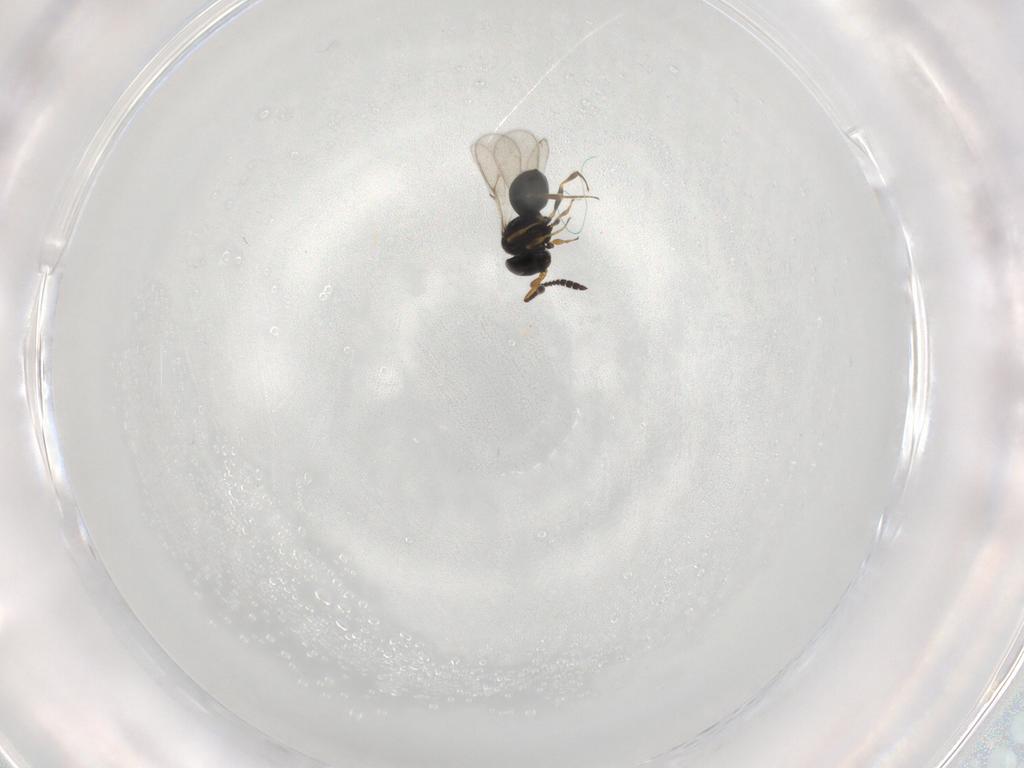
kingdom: Animalia
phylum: Arthropoda
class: Insecta
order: Hymenoptera
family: Scelionidae
